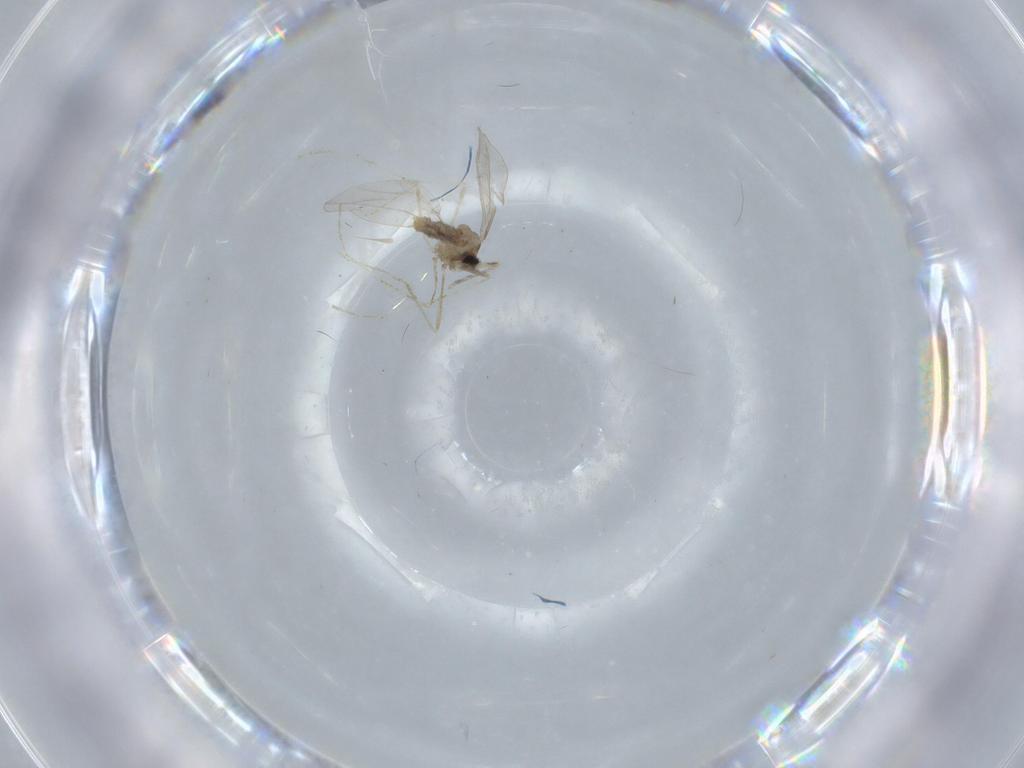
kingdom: Animalia
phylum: Arthropoda
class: Insecta
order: Diptera
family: Cecidomyiidae
